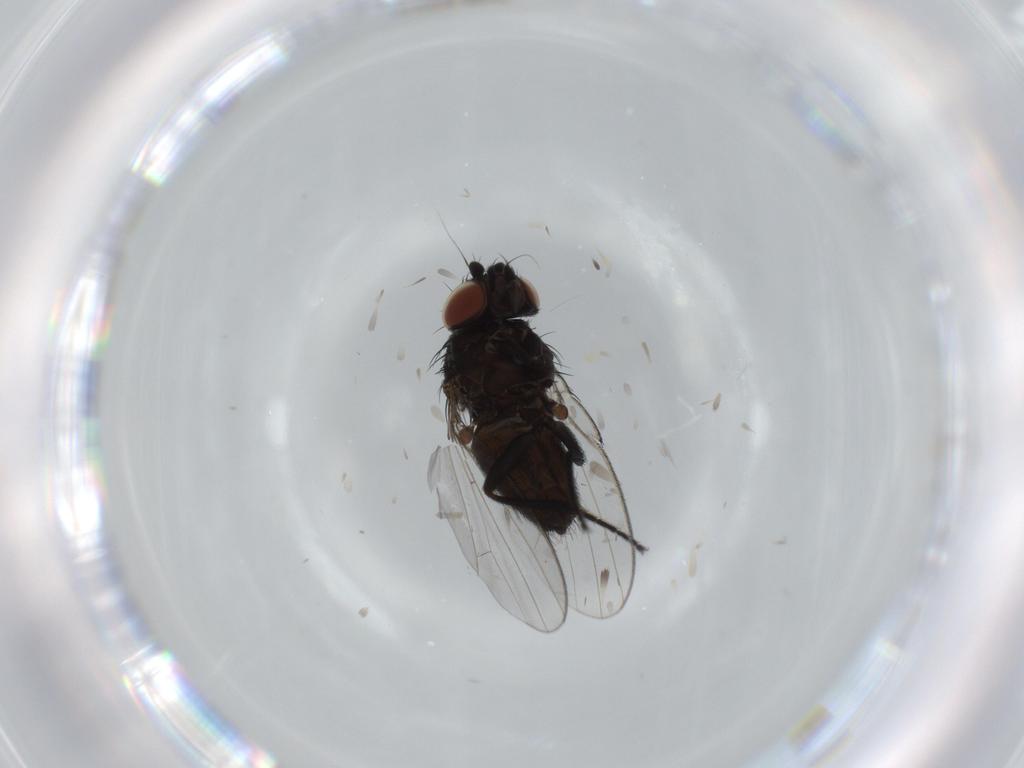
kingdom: Animalia
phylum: Arthropoda
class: Insecta
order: Diptera
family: Milichiidae
